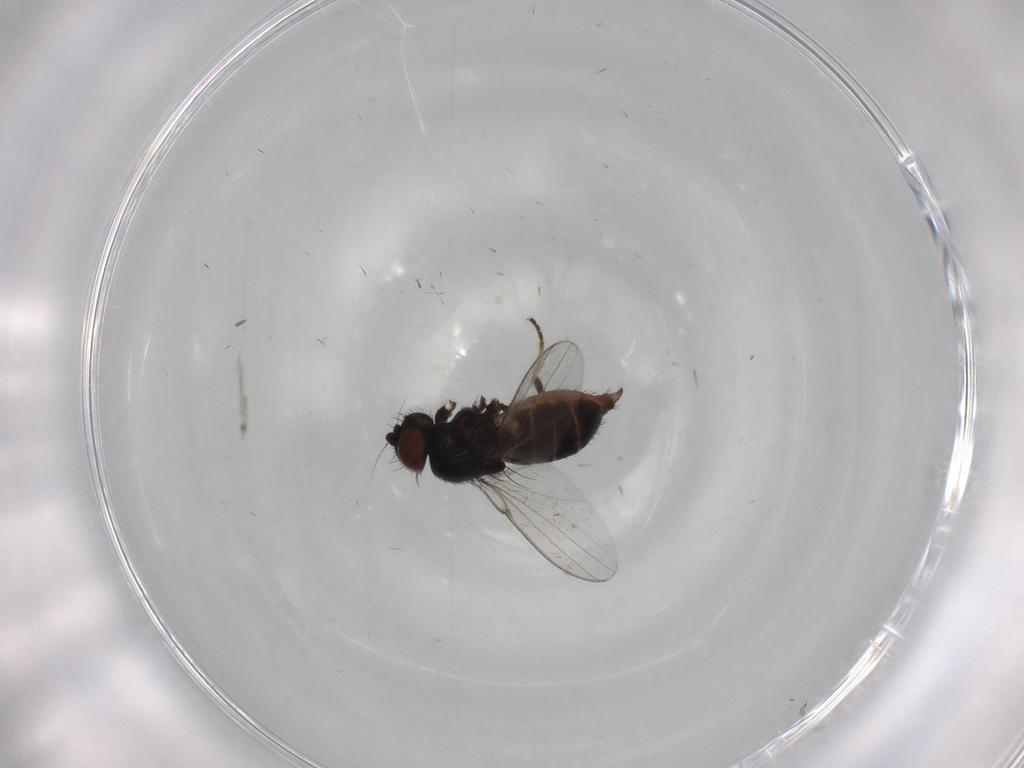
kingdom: Animalia
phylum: Arthropoda
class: Insecta
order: Diptera
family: Milichiidae
